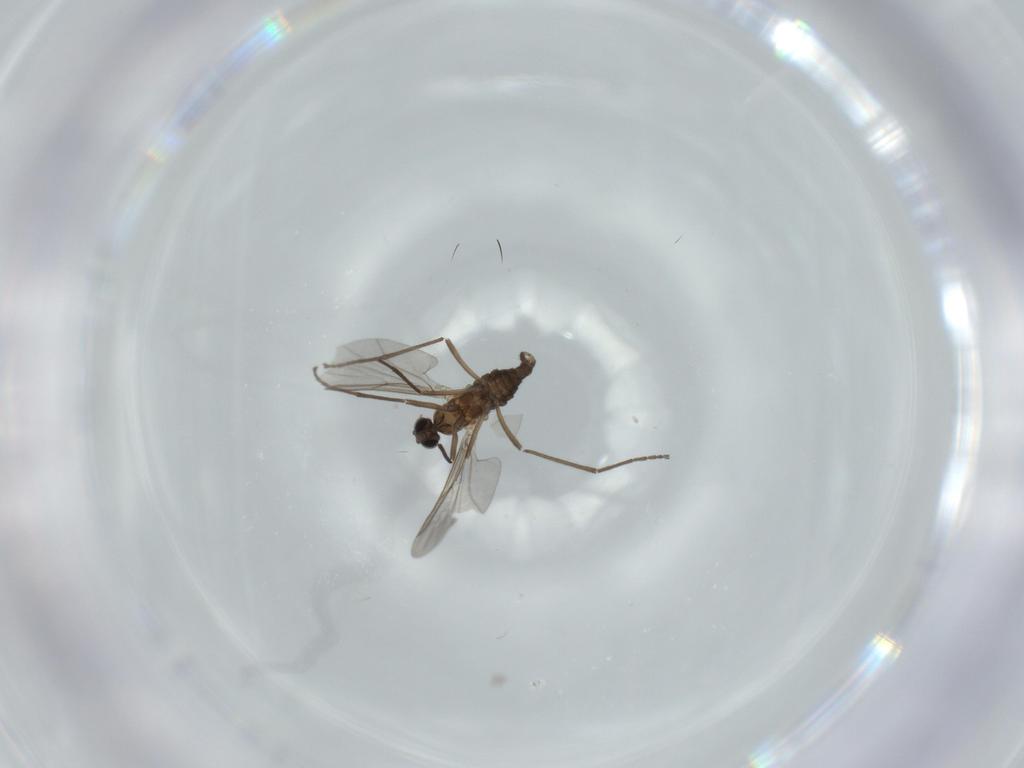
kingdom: Animalia
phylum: Arthropoda
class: Insecta
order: Diptera
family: Cecidomyiidae
